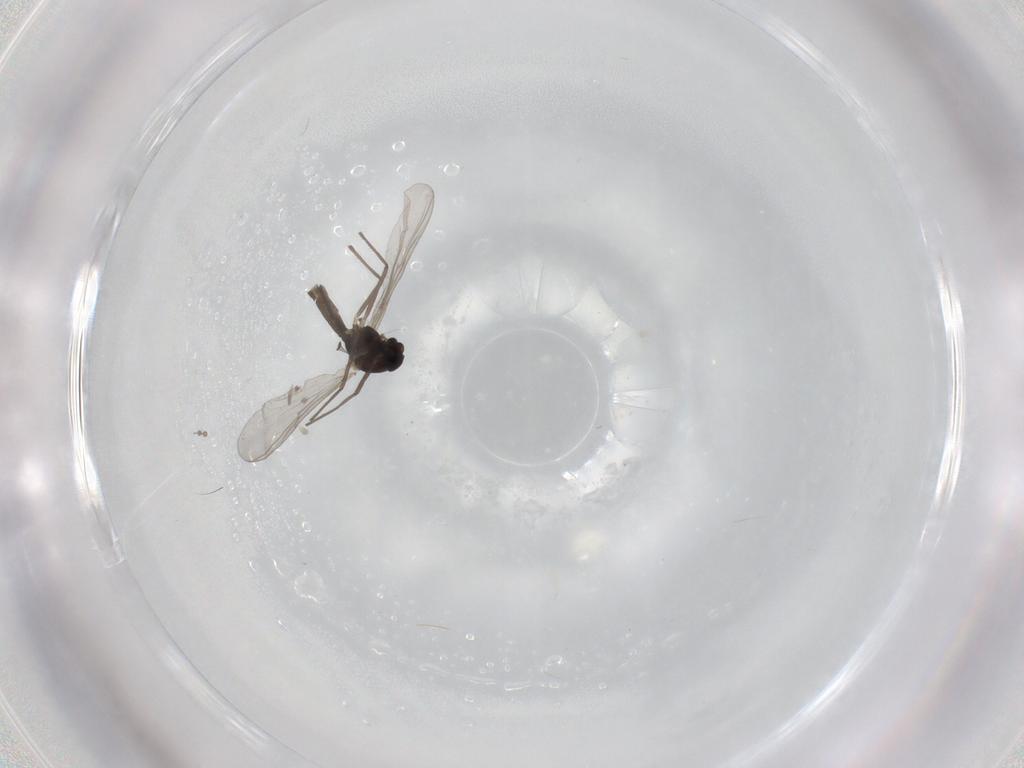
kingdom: Animalia
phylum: Arthropoda
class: Insecta
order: Diptera
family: Chironomidae
